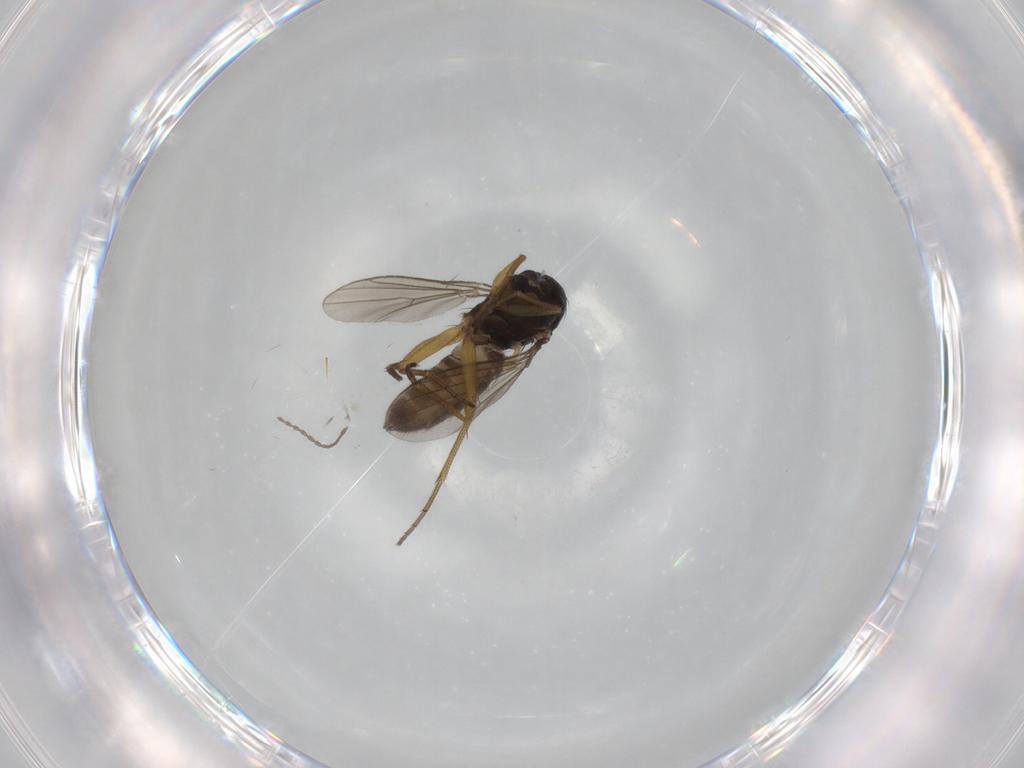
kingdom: Animalia
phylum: Arthropoda
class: Insecta
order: Diptera
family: Dolichopodidae
